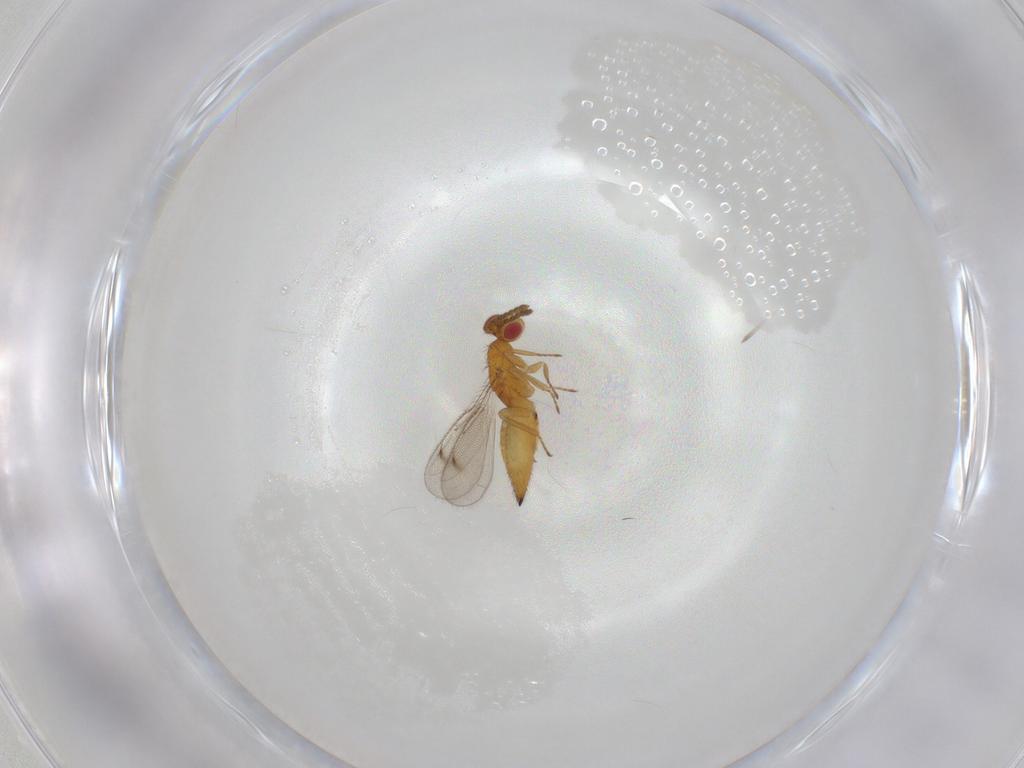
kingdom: Animalia
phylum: Arthropoda
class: Insecta
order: Hymenoptera
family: Eulophidae
